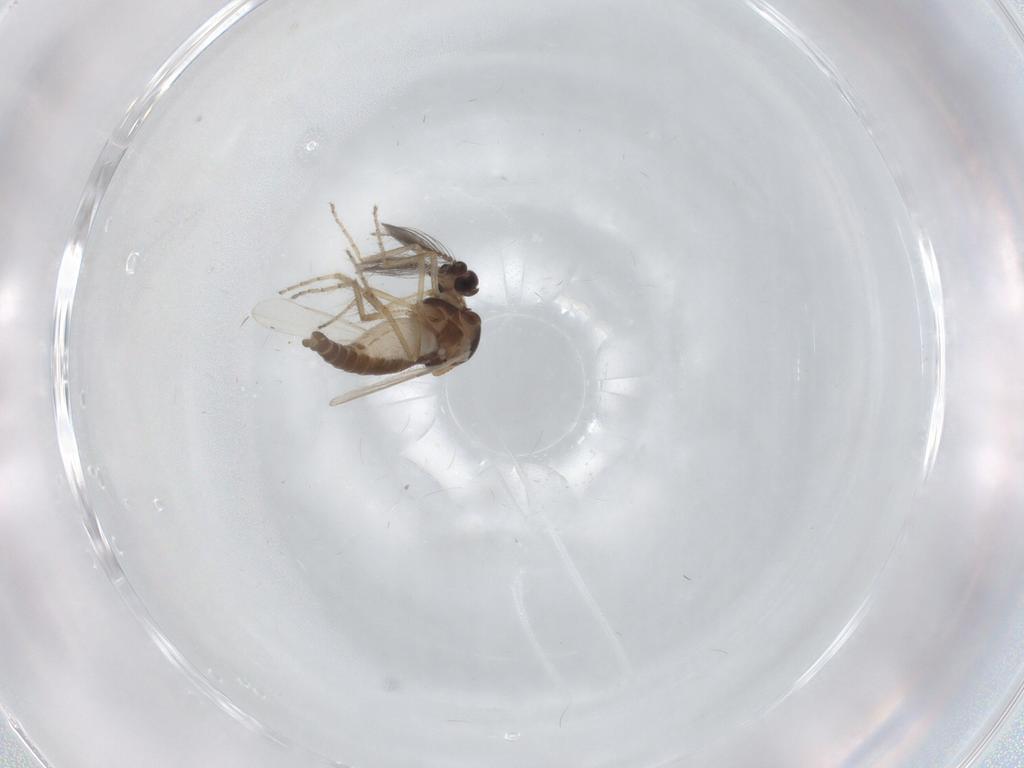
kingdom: Animalia
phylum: Arthropoda
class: Insecta
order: Diptera
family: Ceratopogonidae
